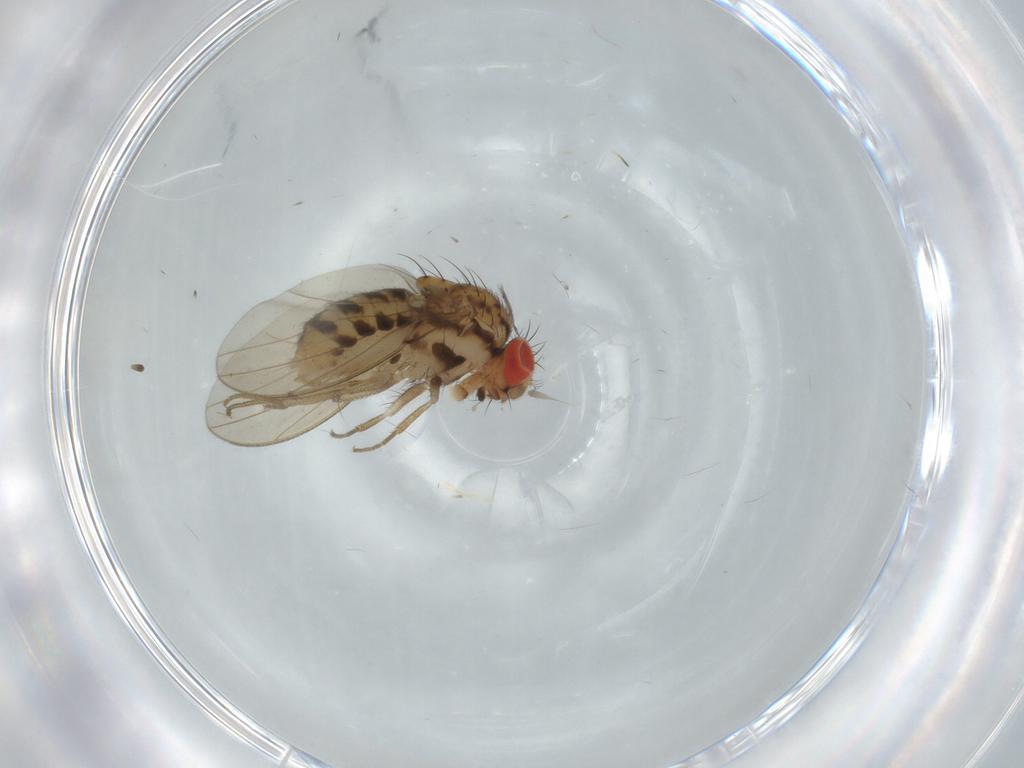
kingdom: Animalia
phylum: Arthropoda
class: Insecta
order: Diptera
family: Drosophilidae
